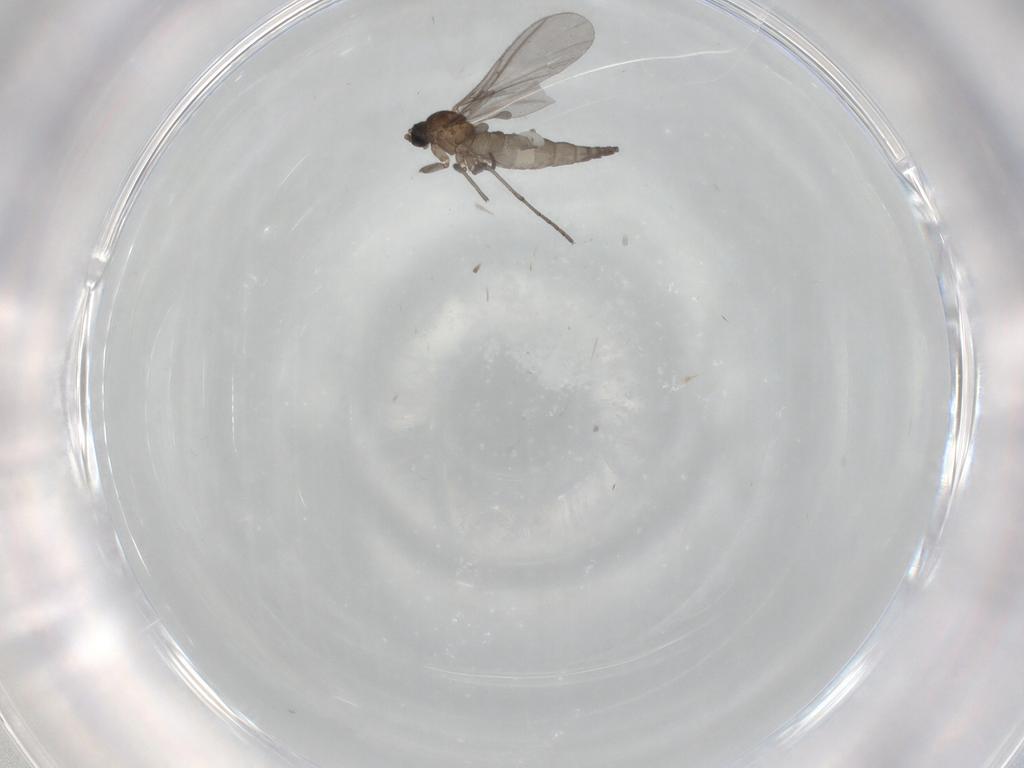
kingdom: Animalia
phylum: Arthropoda
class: Insecta
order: Diptera
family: Sciaridae
